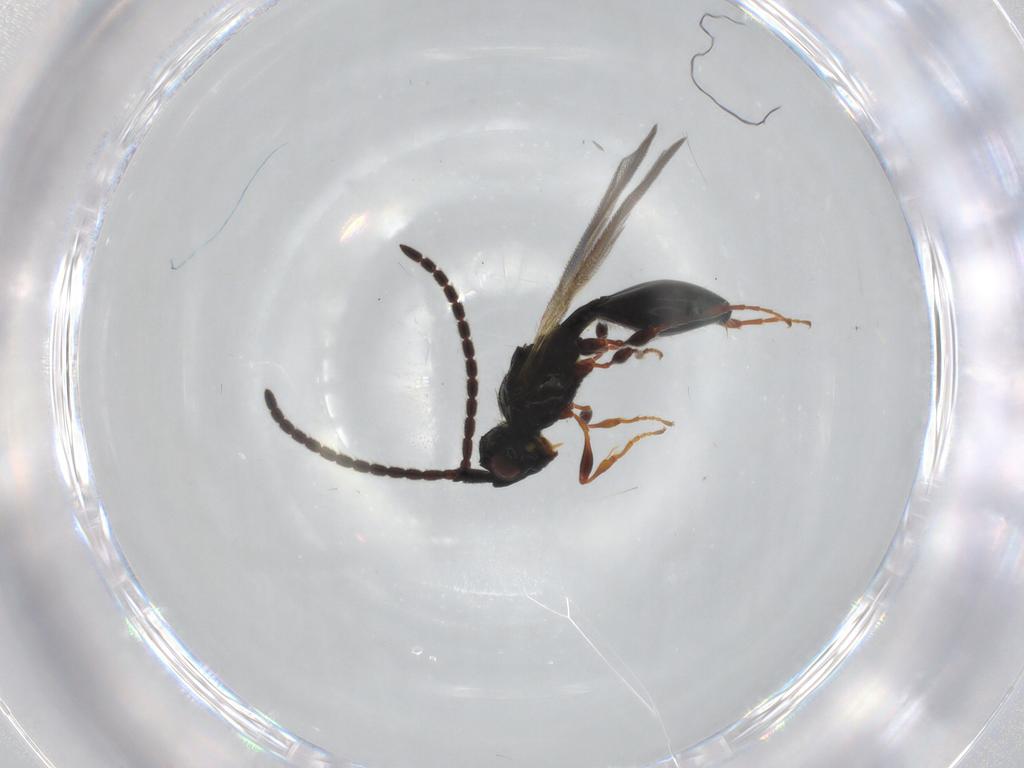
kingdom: Animalia
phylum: Arthropoda
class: Insecta
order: Hymenoptera
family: Diapriidae
